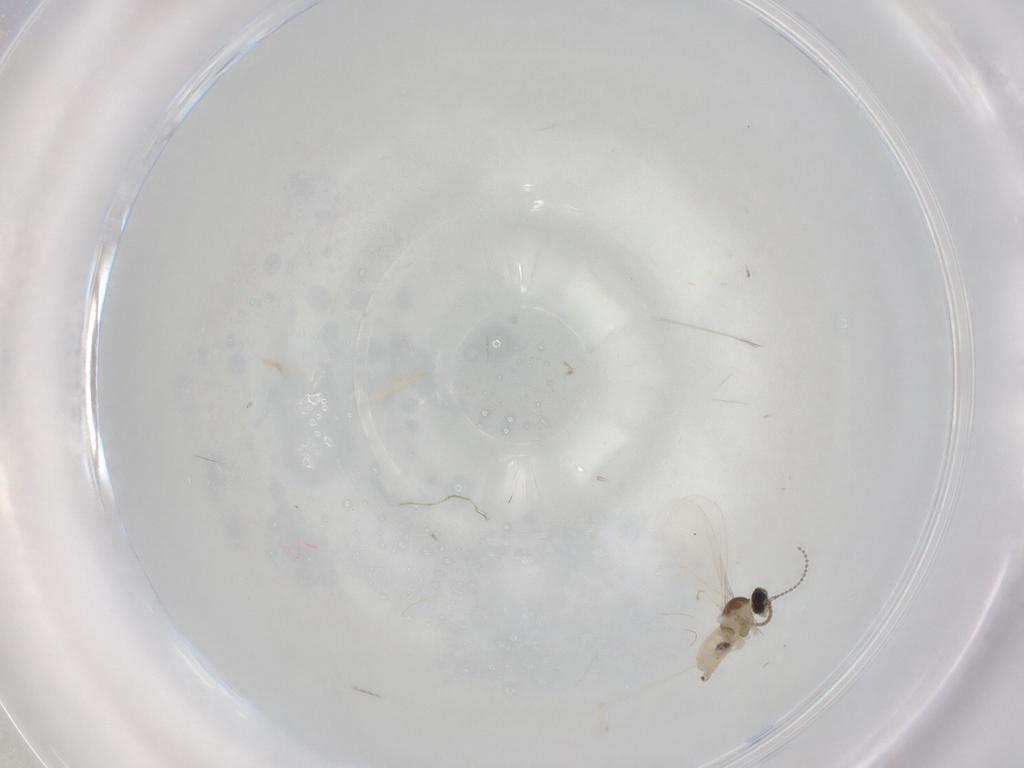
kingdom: Animalia
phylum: Arthropoda
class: Insecta
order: Diptera
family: Cecidomyiidae
